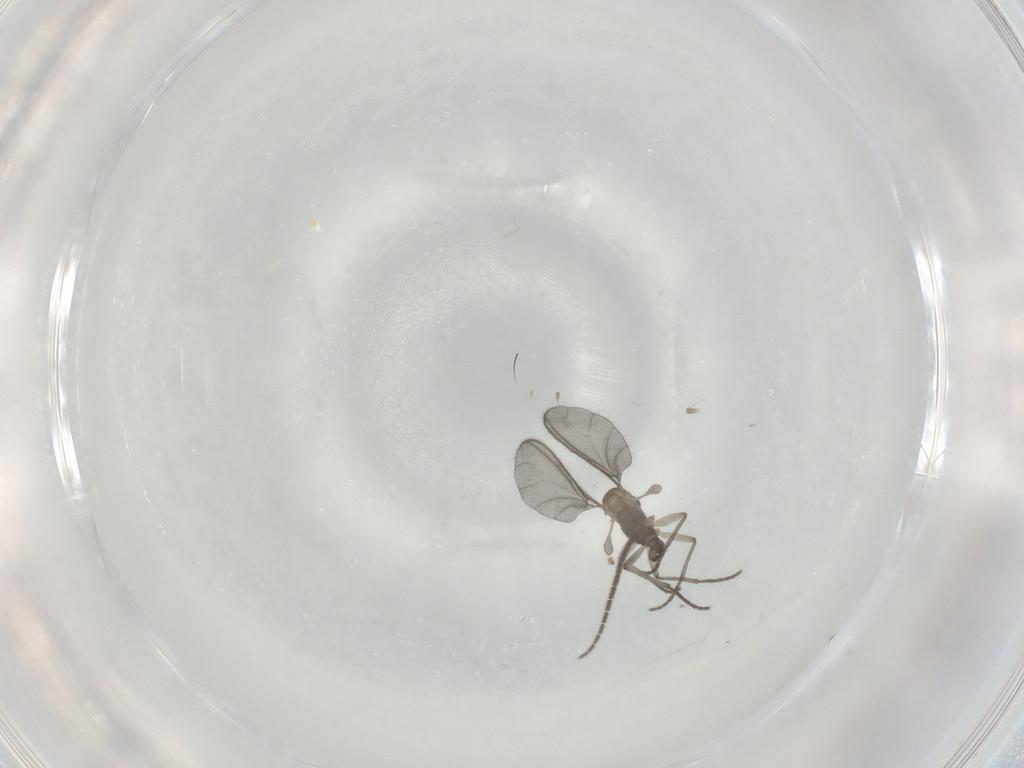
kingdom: Animalia
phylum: Arthropoda
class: Insecta
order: Diptera
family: Sciaridae
